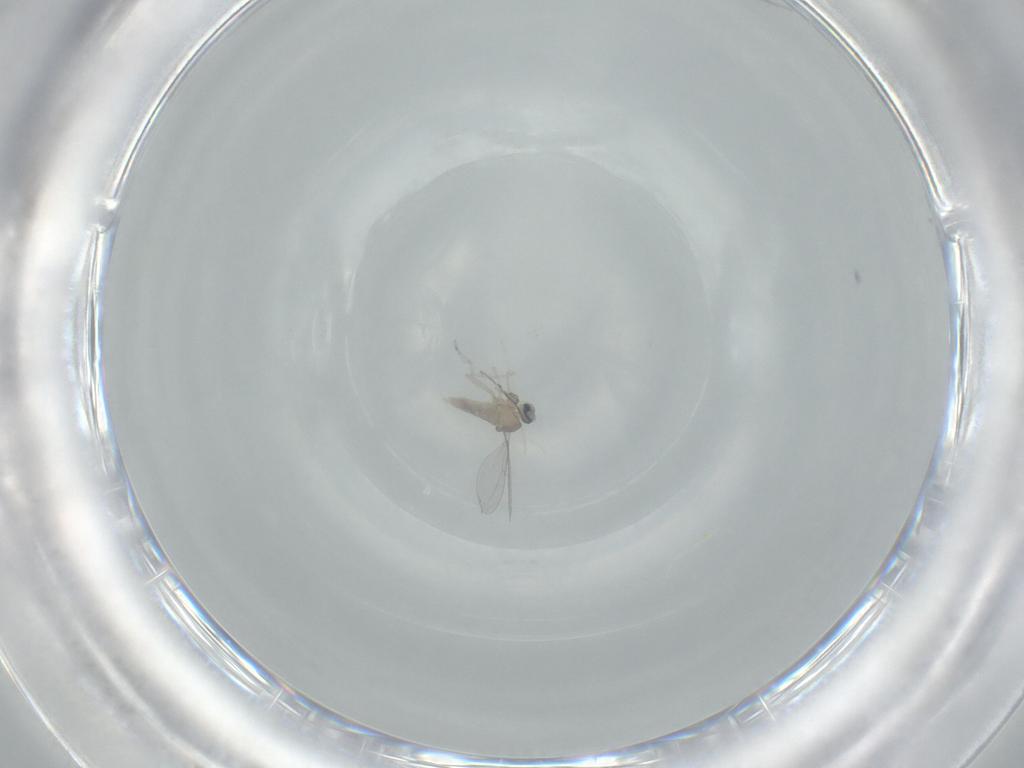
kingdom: Animalia
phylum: Arthropoda
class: Insecta
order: Diptera
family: Cecidomyiidae
